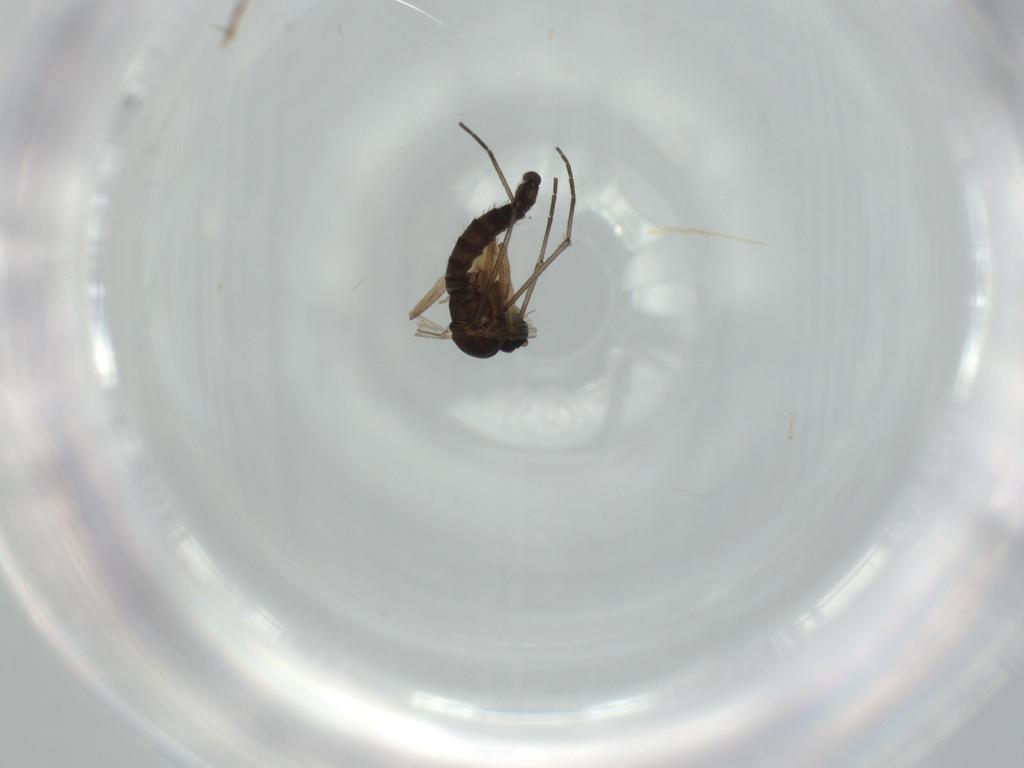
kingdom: Animalia
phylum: Arthropoda
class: Insecta
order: Diptera
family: Sciaridae
